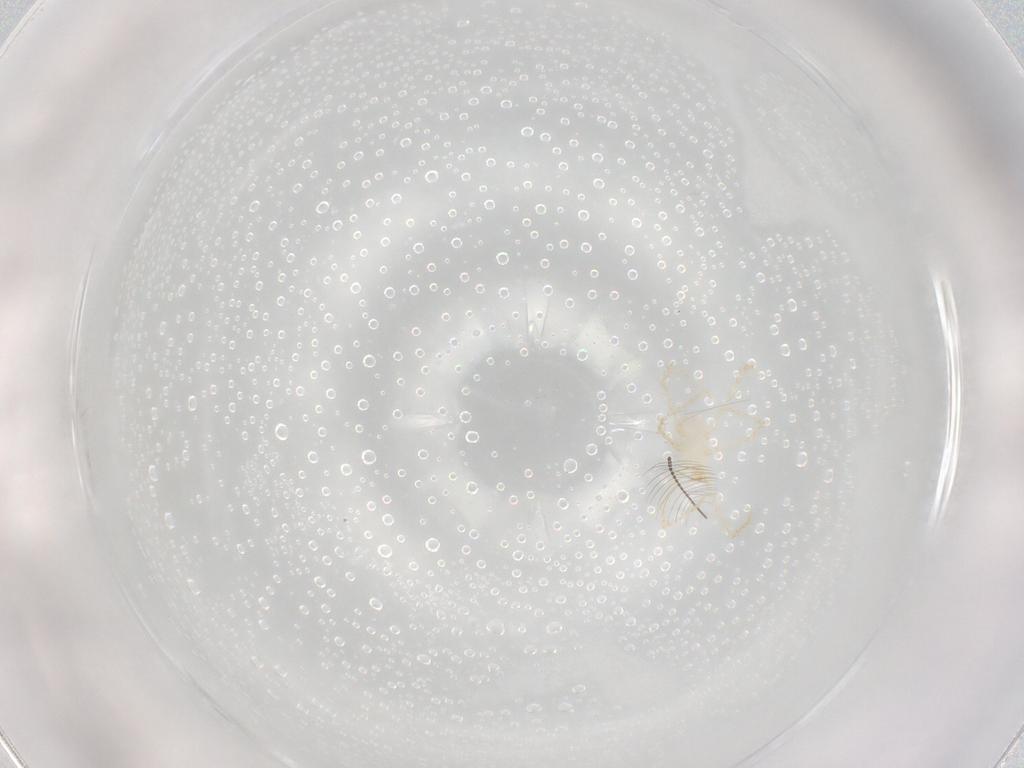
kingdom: Animalia
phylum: Arthropoda
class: Arachnida
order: Trombidiformes
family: Erythraeidae
